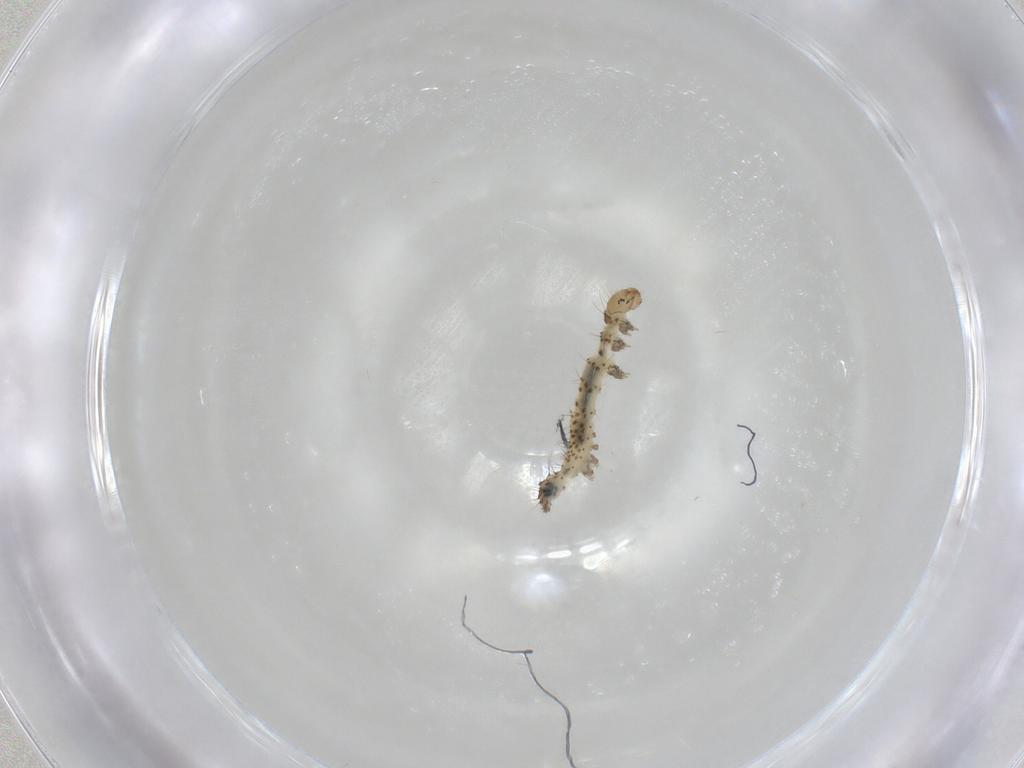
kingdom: Animalia
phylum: Arthropoda
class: Insecta
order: Lepidoptera
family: Erebidae
